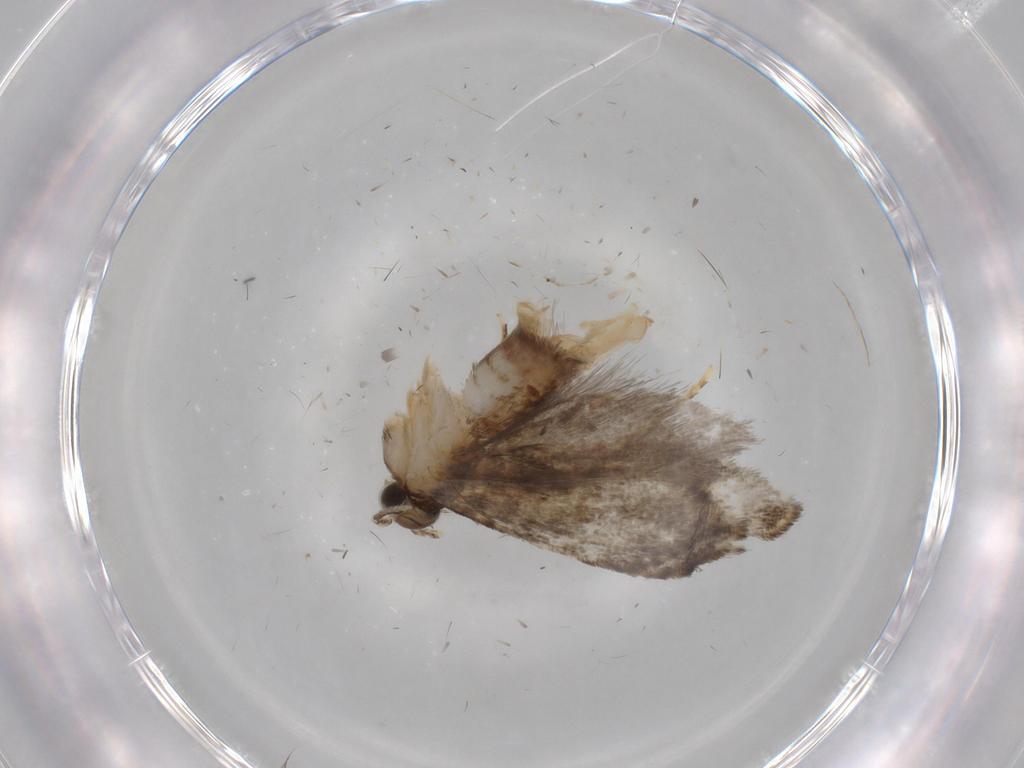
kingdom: Animalia
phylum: Arthropoda
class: Insecta
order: Lepidoptera
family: Tineidae
